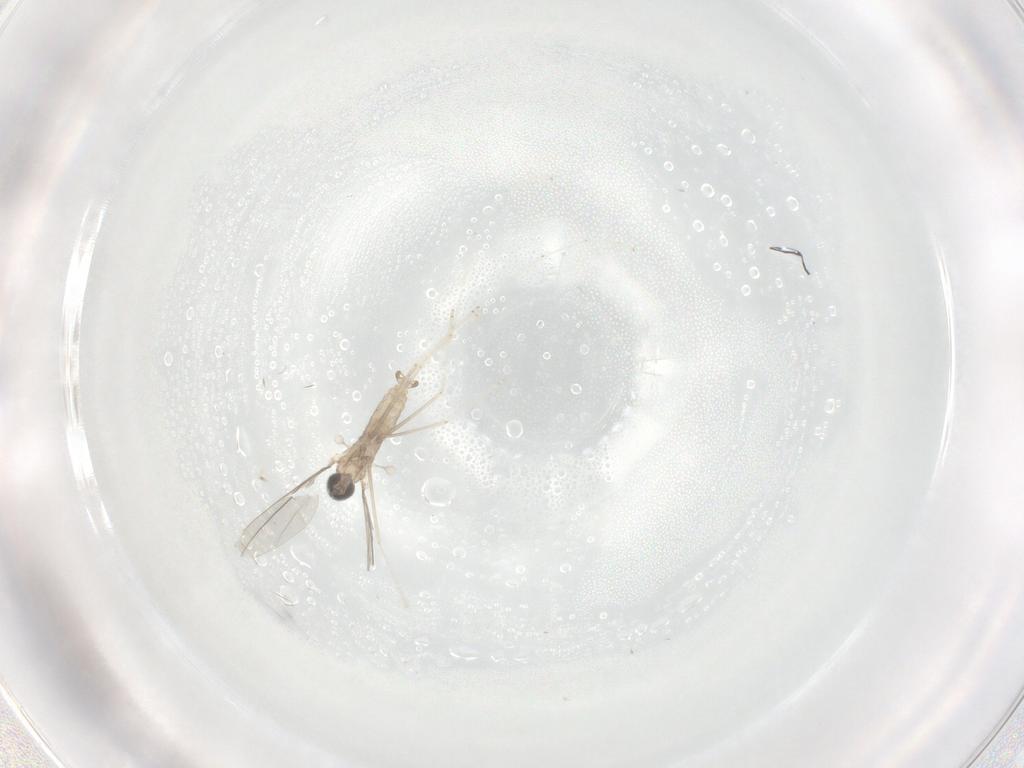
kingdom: Animalia
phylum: Arthropoda
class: Insecta
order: Diptera
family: Cecidomyiidae
